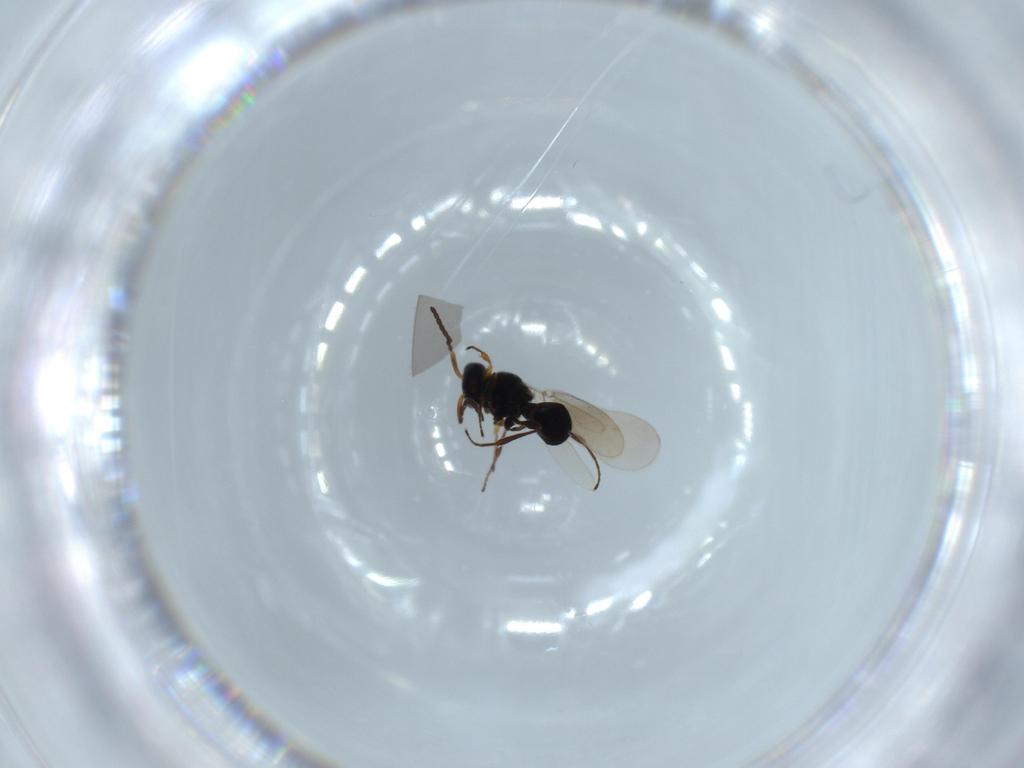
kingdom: Animalia
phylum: Arthropoda
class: Insecta
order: Hymenoptera
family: Platygastridae
